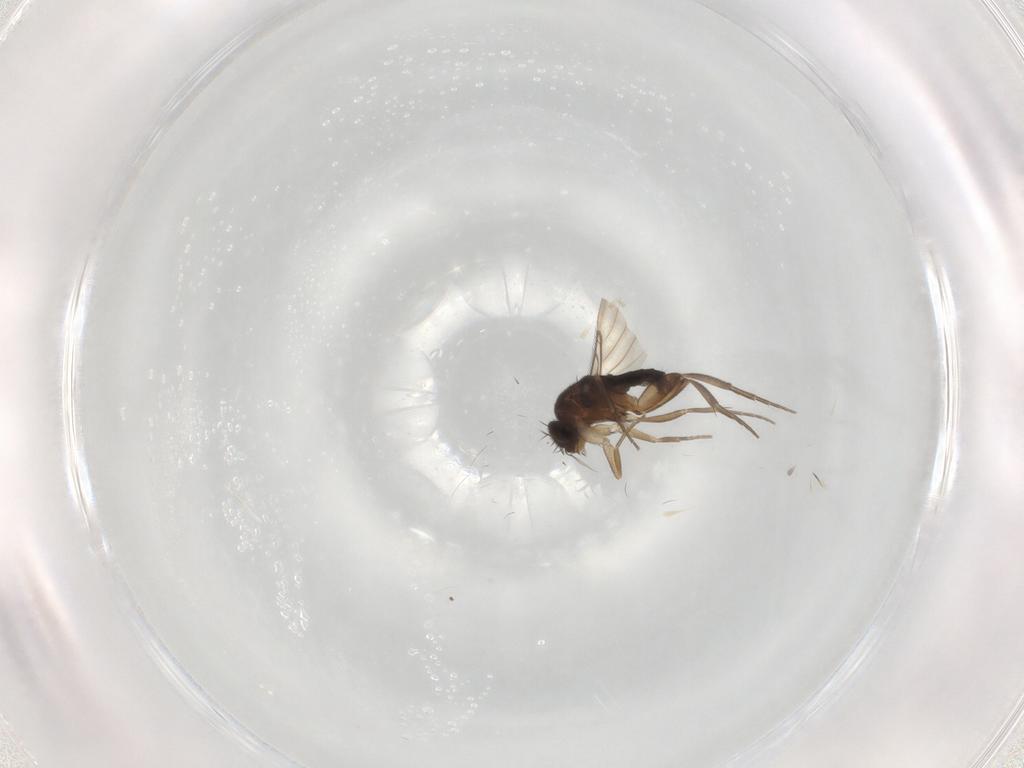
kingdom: Animalia
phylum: Arthropoda
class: Insecta
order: Diptera
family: Phoridae
